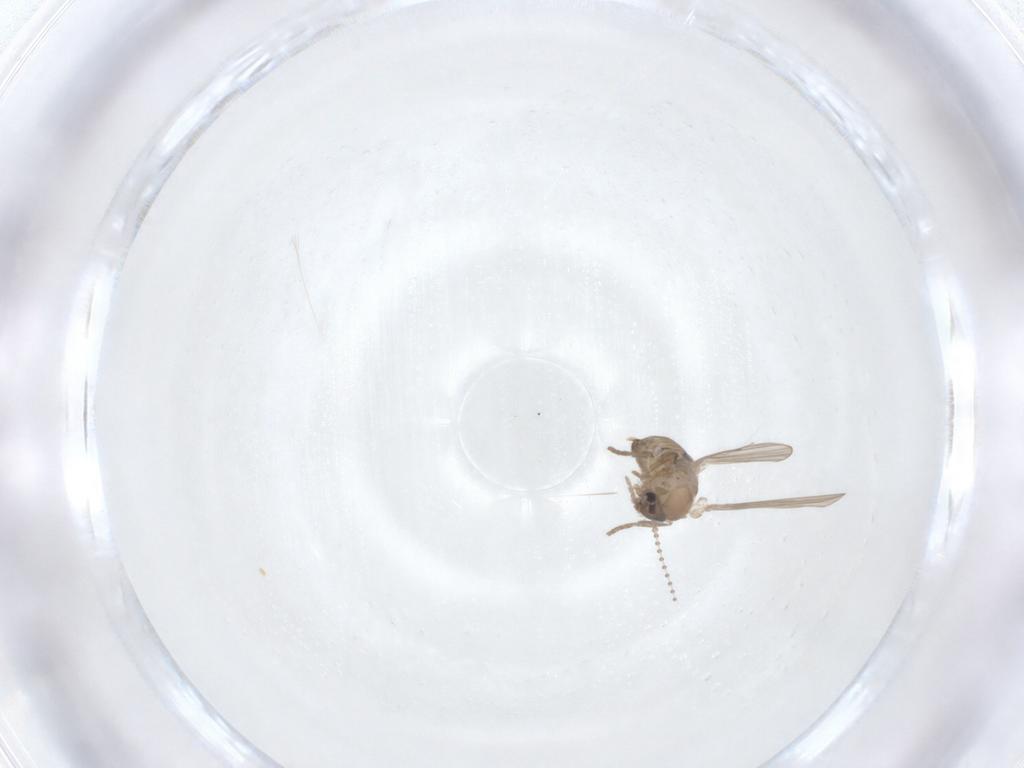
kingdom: Animalia
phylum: Arthropoda
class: Insecta
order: Diptera
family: Psychodidae
